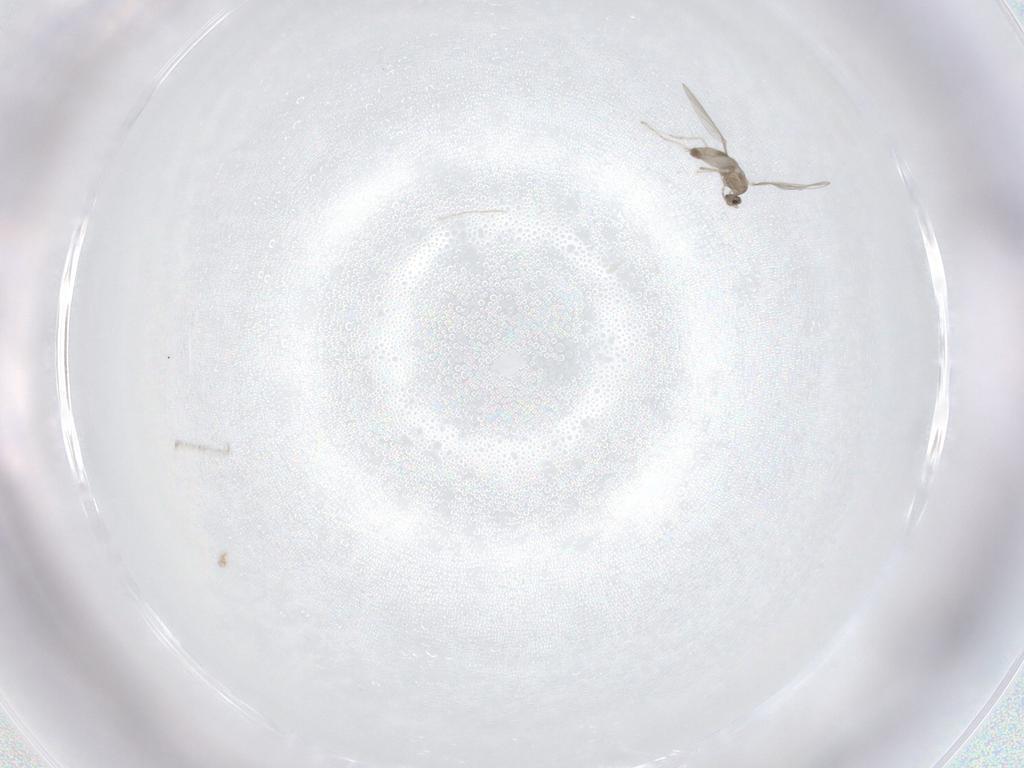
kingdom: Animalia
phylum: Arthropoda
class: Insecta
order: Diptera
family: Cecidomyiidae
